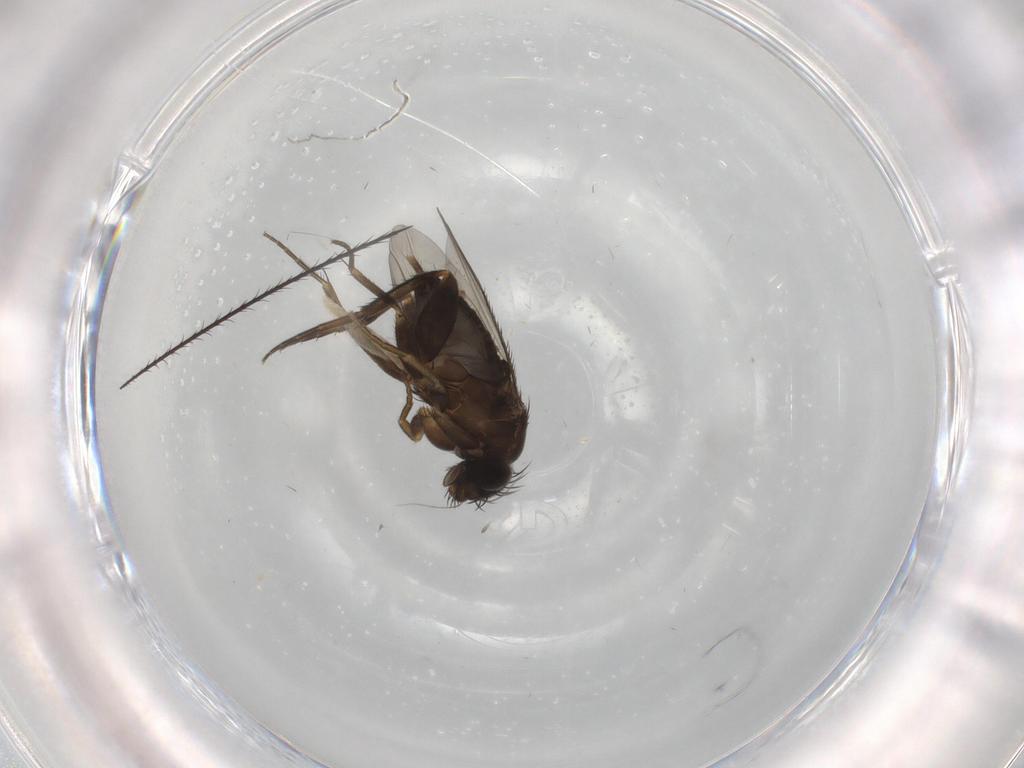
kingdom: Animalia
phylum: Arthropoda
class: Insecta
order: Diptera
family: Phoridae
